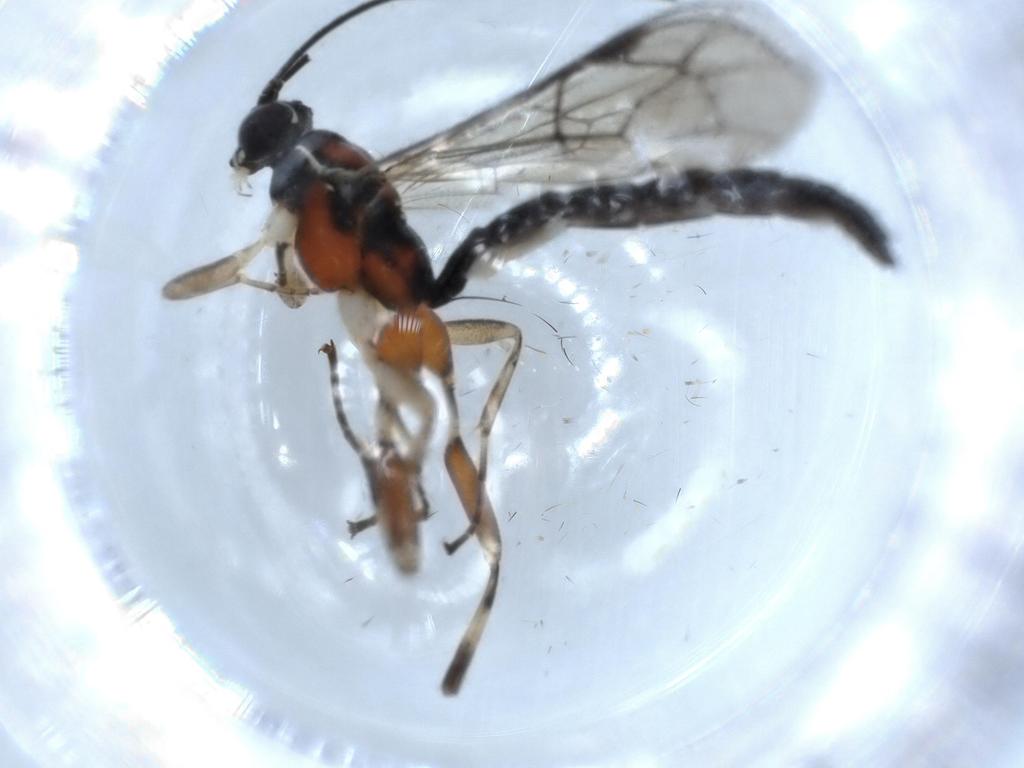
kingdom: Animalia
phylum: Arthropoda
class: Insecta
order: Hymenoptera
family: Ichneumonidae
